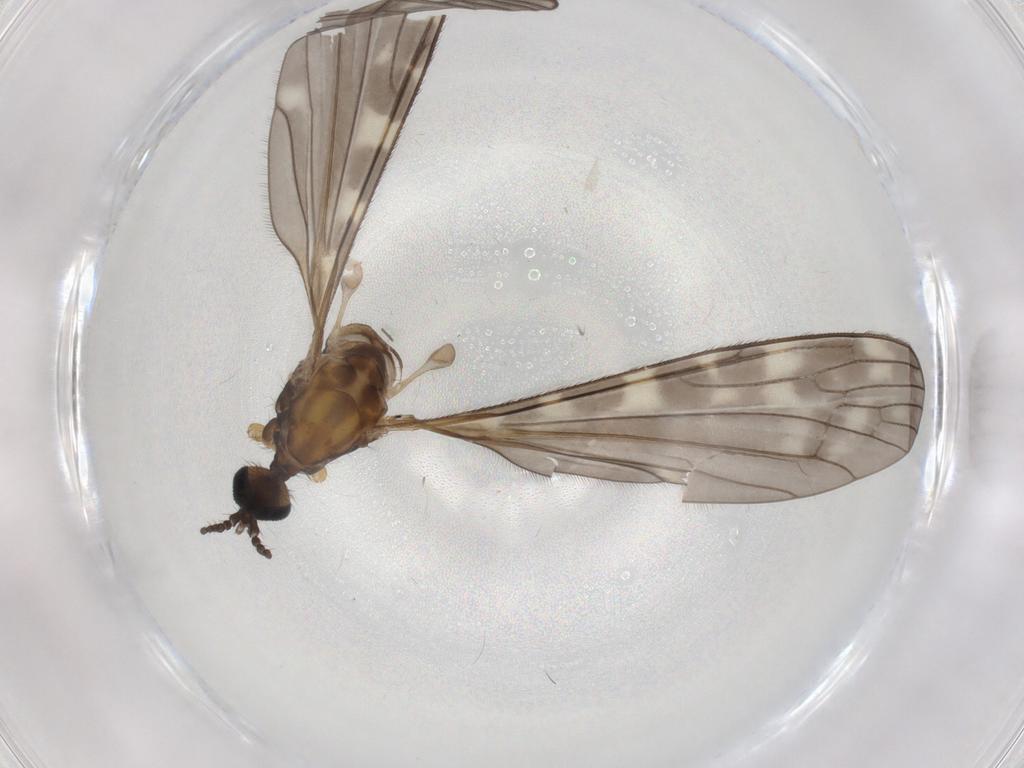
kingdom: Animalia
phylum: Arthropoda
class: Insecta
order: Diptera
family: Chironomidae
